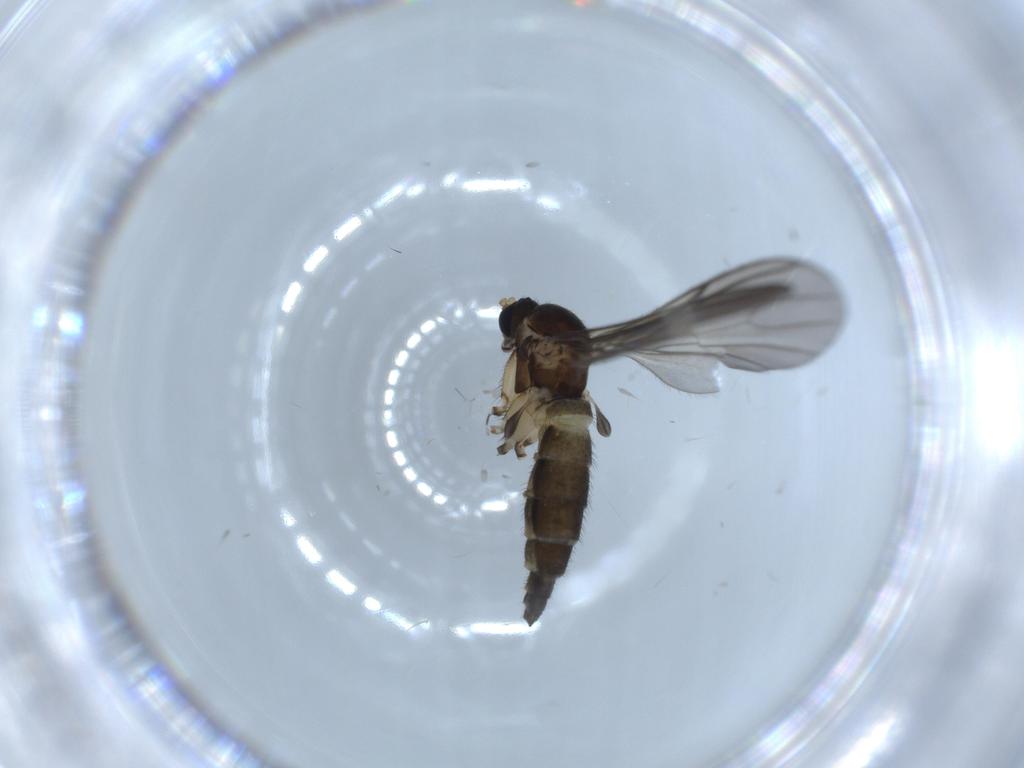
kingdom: Animalia
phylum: Arthropoda
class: Insecta
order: Diptera
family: Sciaridae
